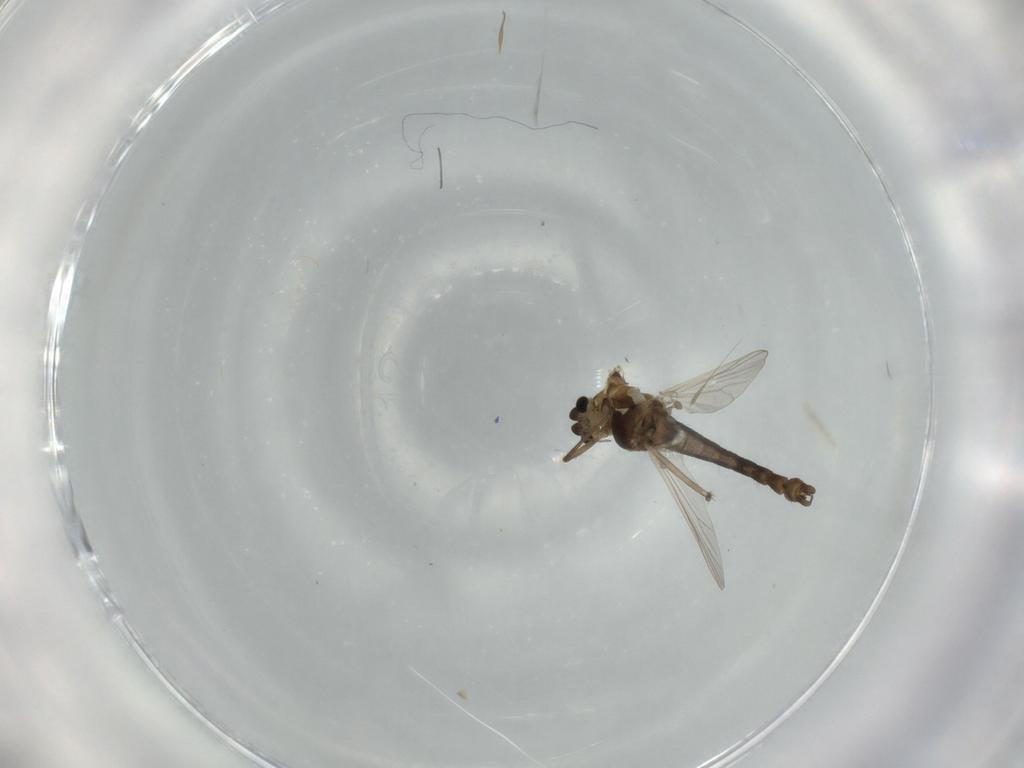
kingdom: Animalia
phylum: Arthropoda
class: Insecta
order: Diptera
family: Chironomidae
